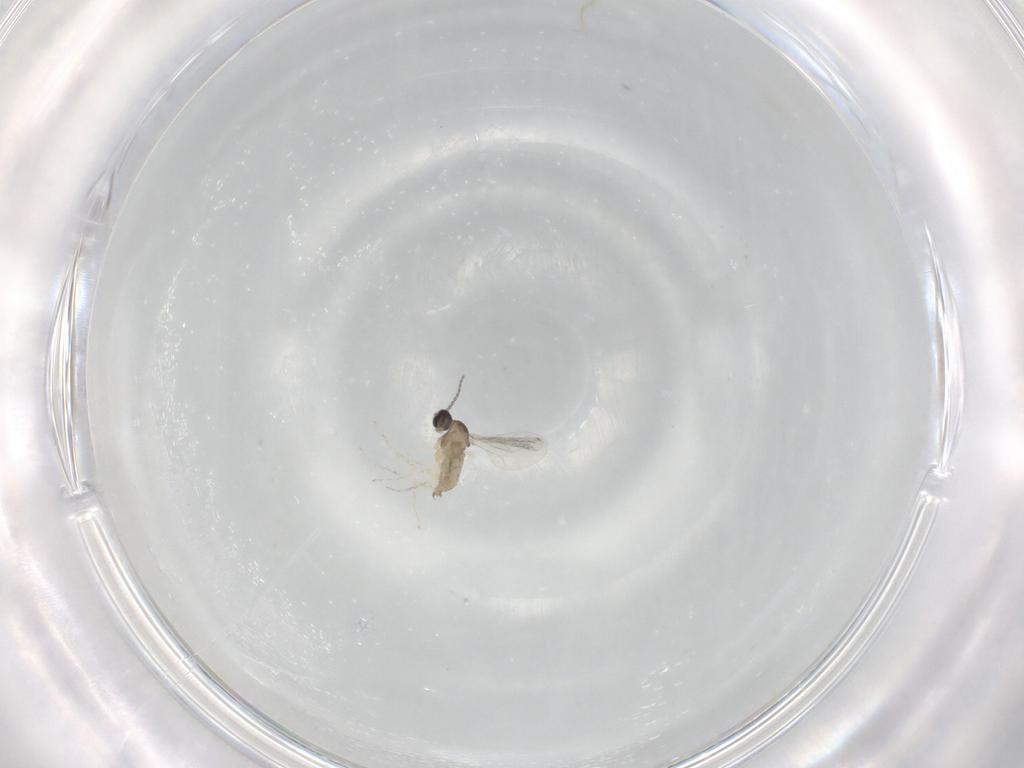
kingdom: Animalia
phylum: Arthropoda
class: Insecta
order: Diptera
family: Cecidomyiidae
